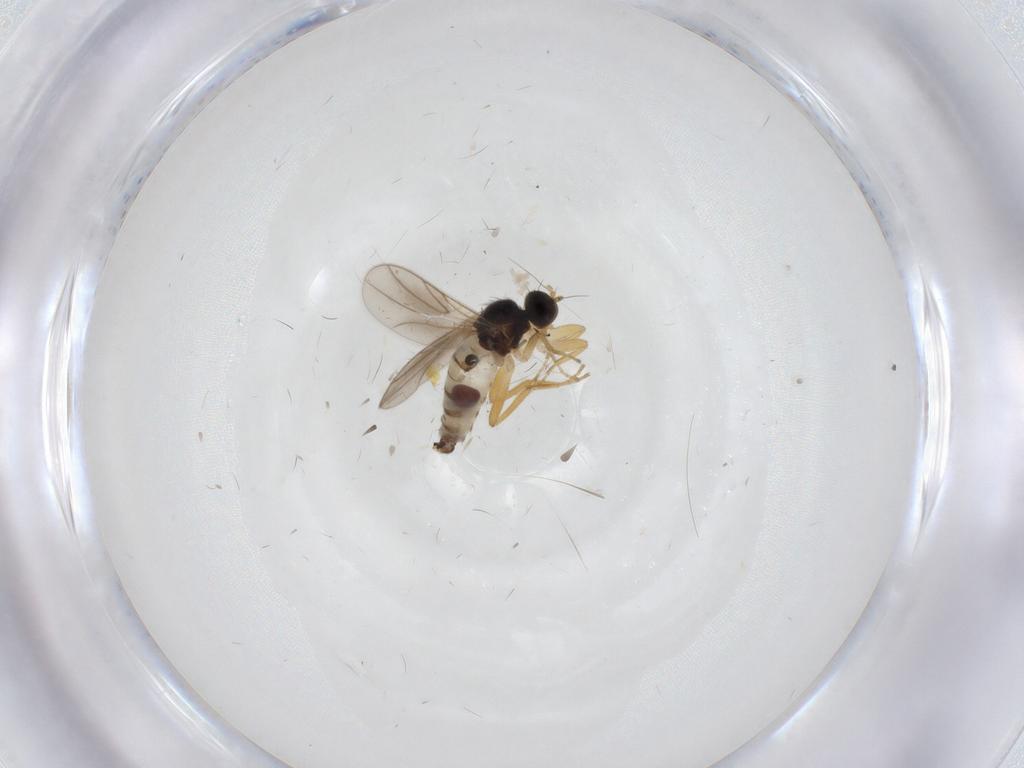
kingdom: Animalia
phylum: Arthropoda
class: Insecta
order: Diptera
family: Hybotidae
